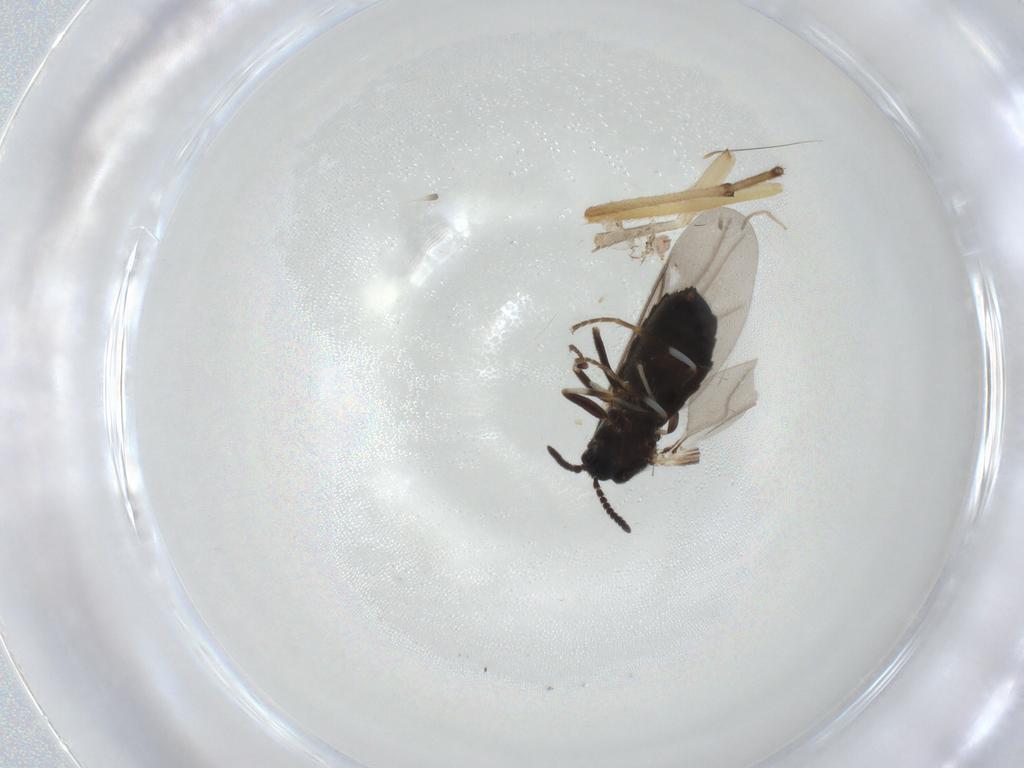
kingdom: Animalia
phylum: Arthropoda
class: Insecta
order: Diptera
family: Scatopsidae
